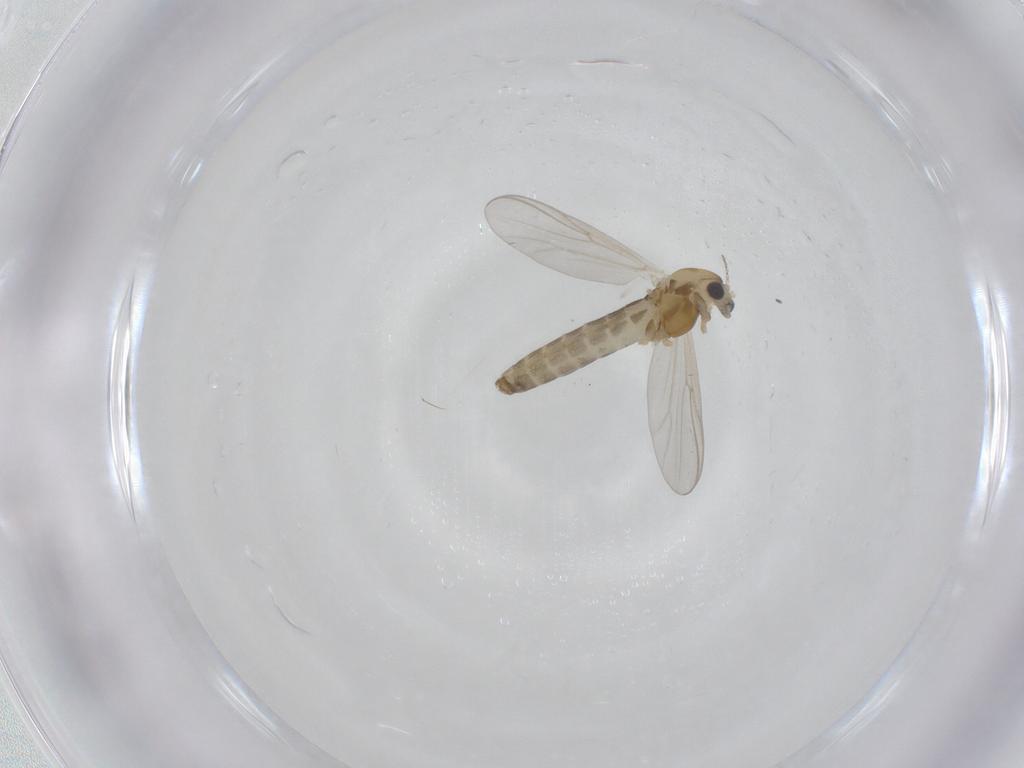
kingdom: Animalia
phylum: Arthropoda
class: Insecta
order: Diptera
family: Chironomidae
